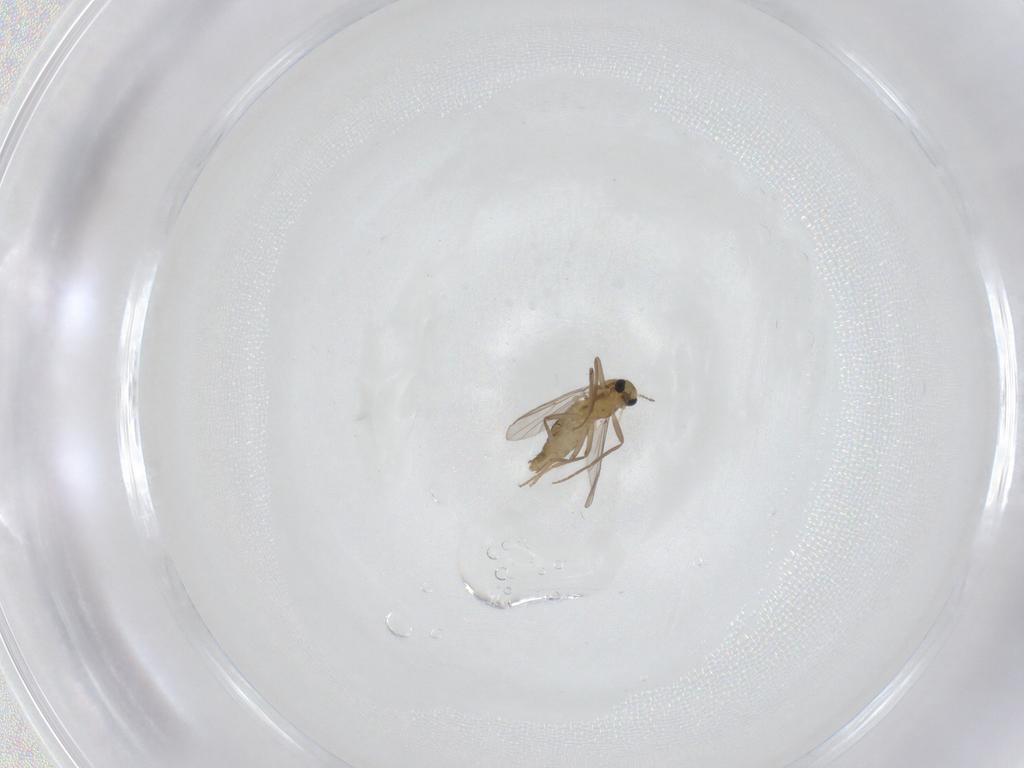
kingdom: Animalia
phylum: Arthropoda
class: Insecta
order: Diptera
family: Chironomidae
